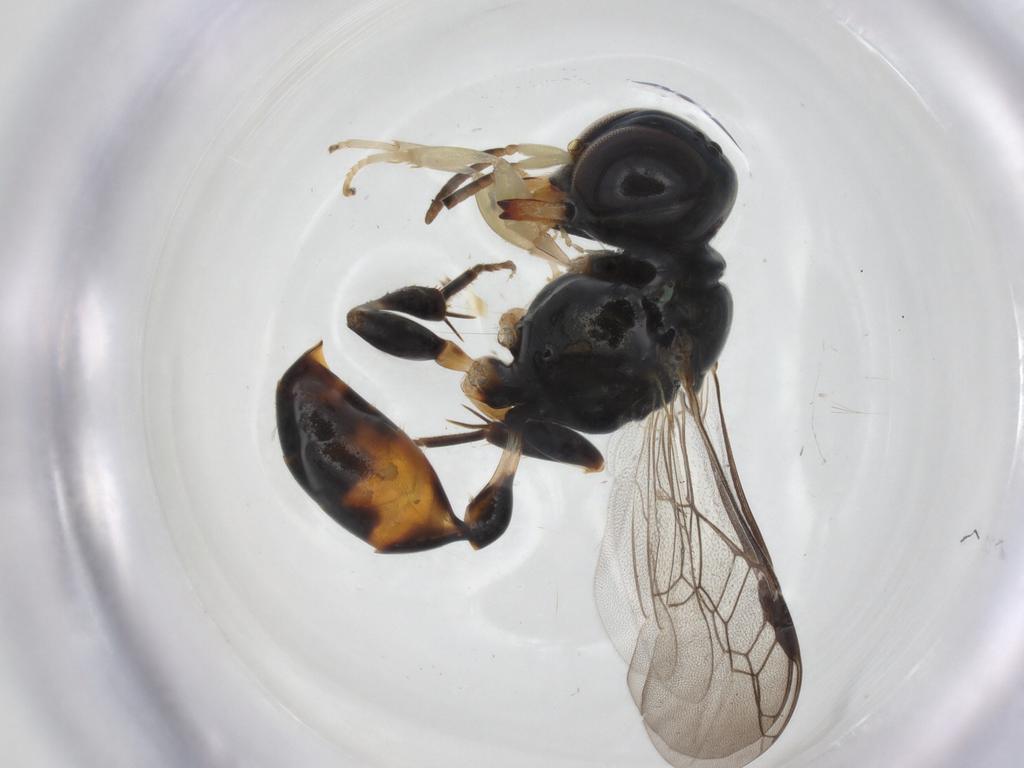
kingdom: Animalia
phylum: Arthropoda
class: Insecta
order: Hymenoptera
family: Crabronidae
